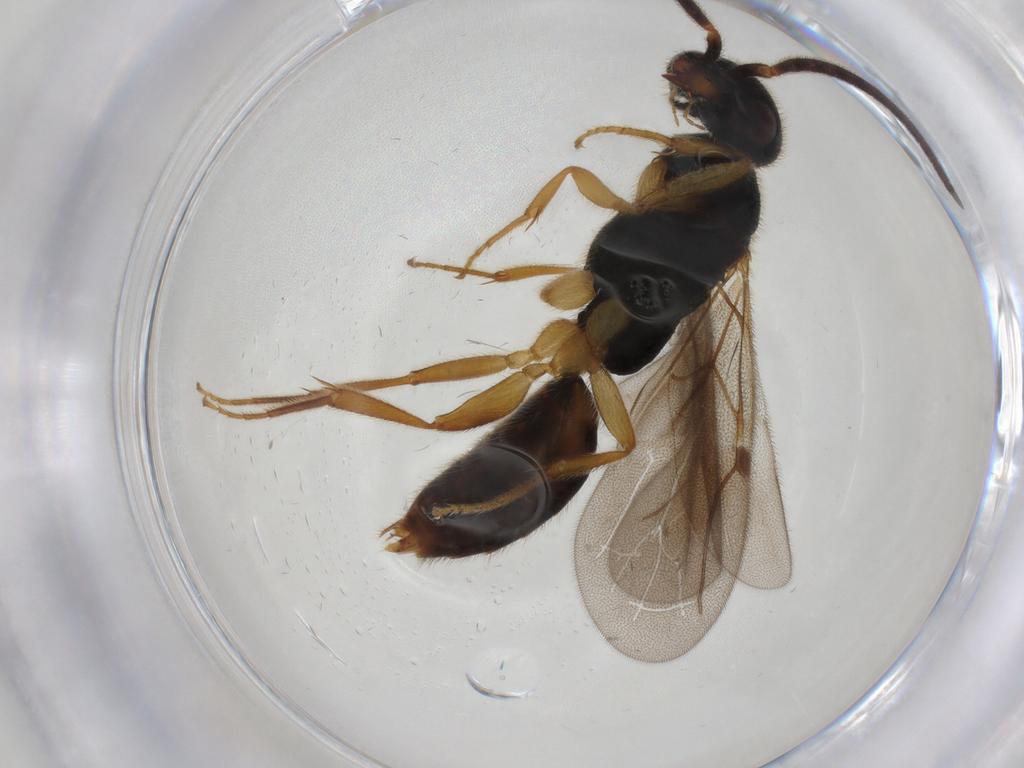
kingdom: Animalia
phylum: Arthropoda
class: Insecta
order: Hymenoptera
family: Bethylidae
